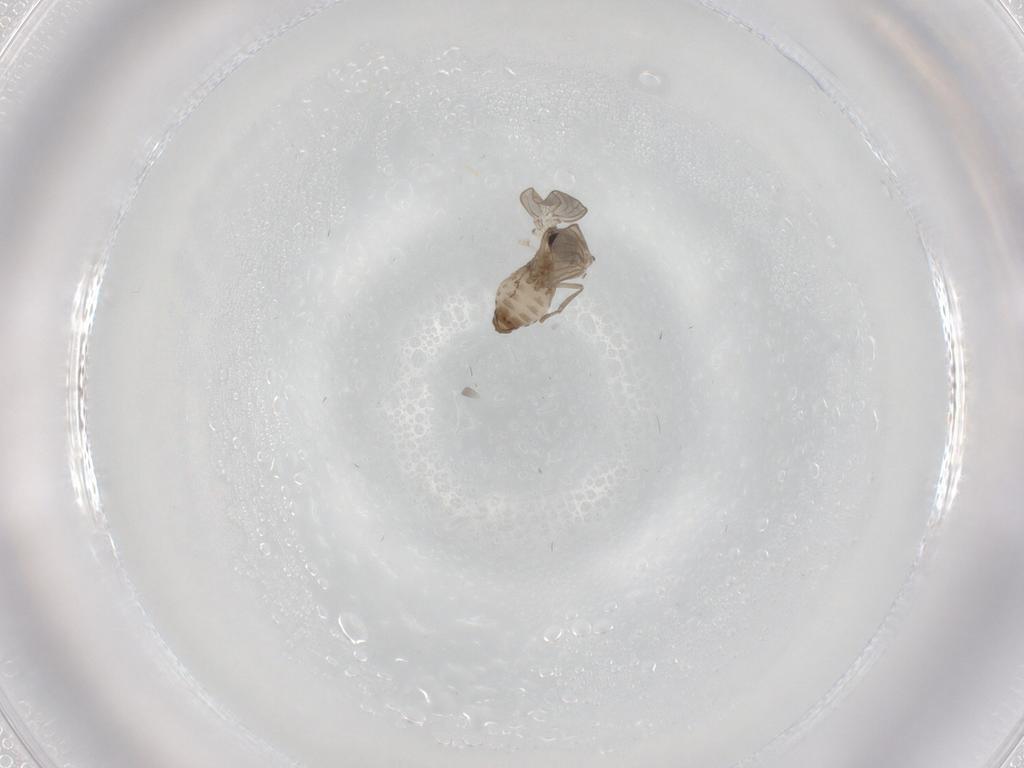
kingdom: Animalia
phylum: Arthropoda
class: Insecta
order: Diptera
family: Psychodidae
